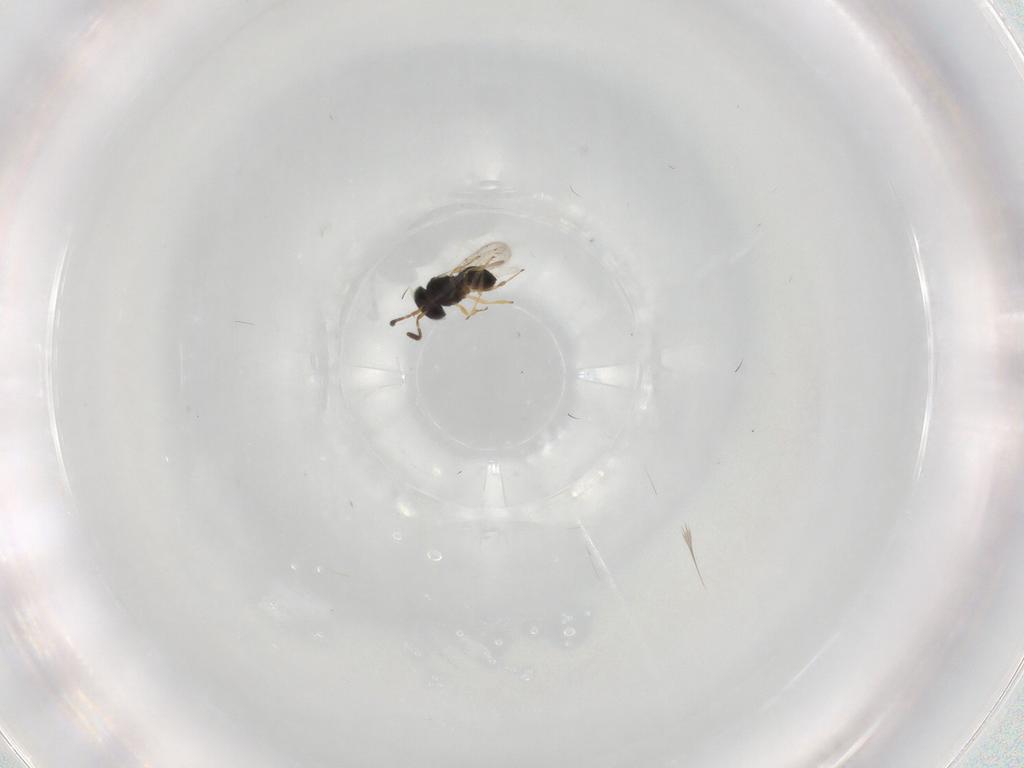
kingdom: Animalia
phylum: Arthropoda
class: Insecta
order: Hymenoptera
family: Scelionidae
